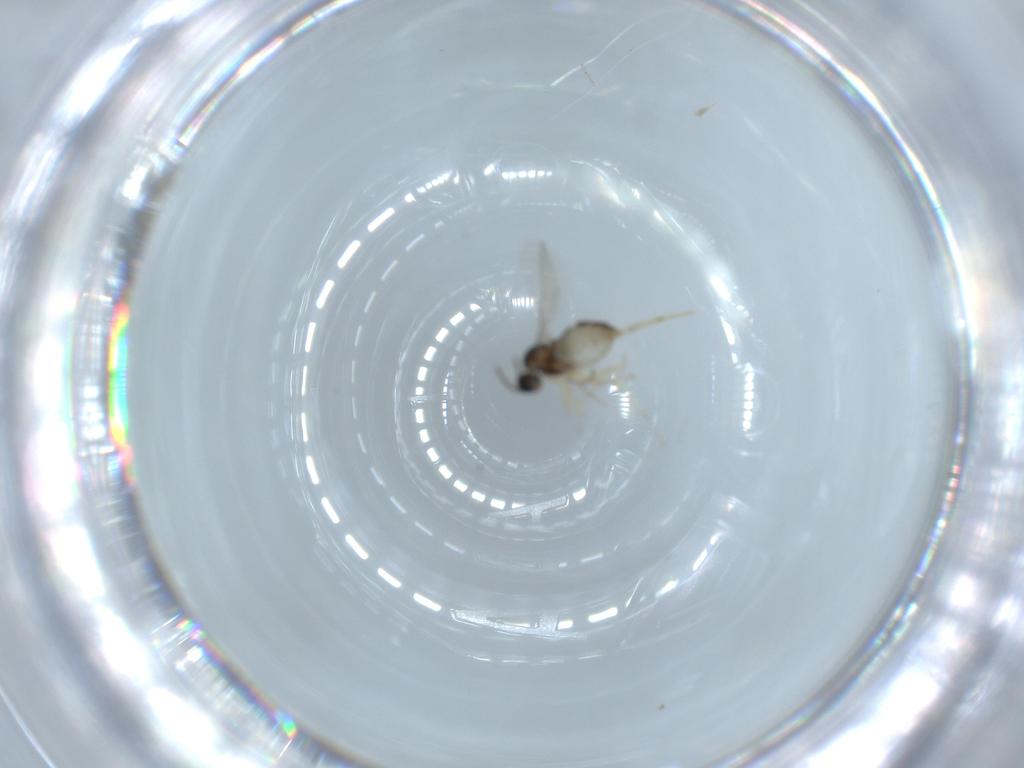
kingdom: Animalia
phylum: Arthropoda
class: Insecta
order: Diptera
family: Cecidomyiidae
